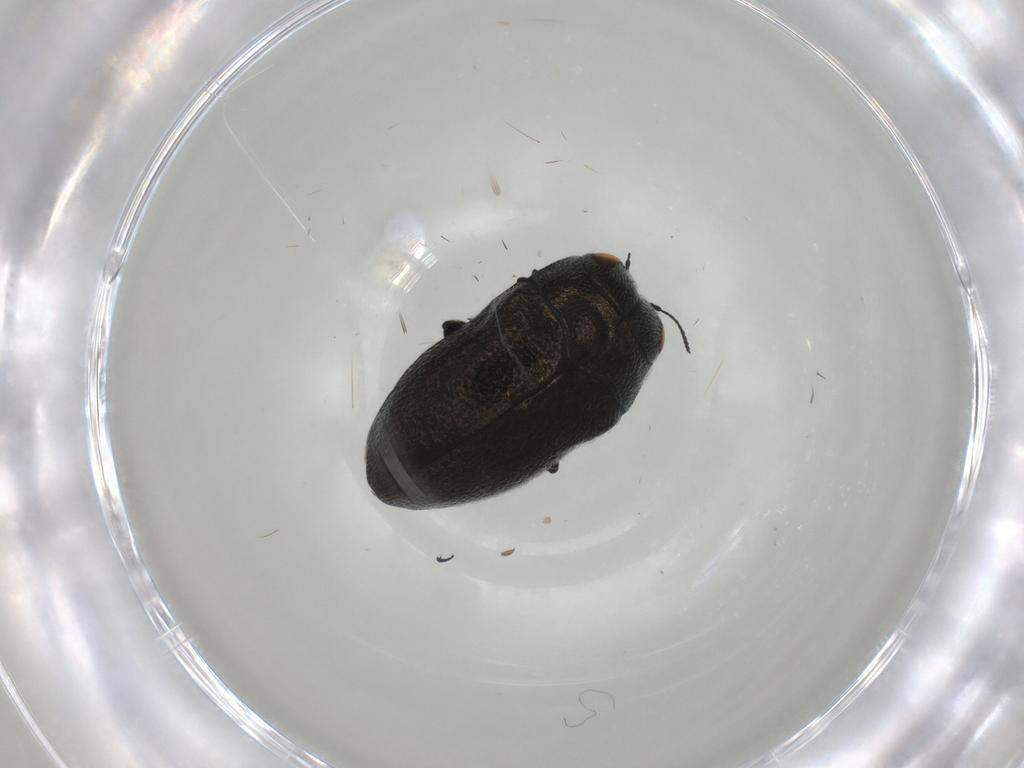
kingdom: Animalia
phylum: Arthropoda
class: Insecta
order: Coleoptera
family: Buprestidae
